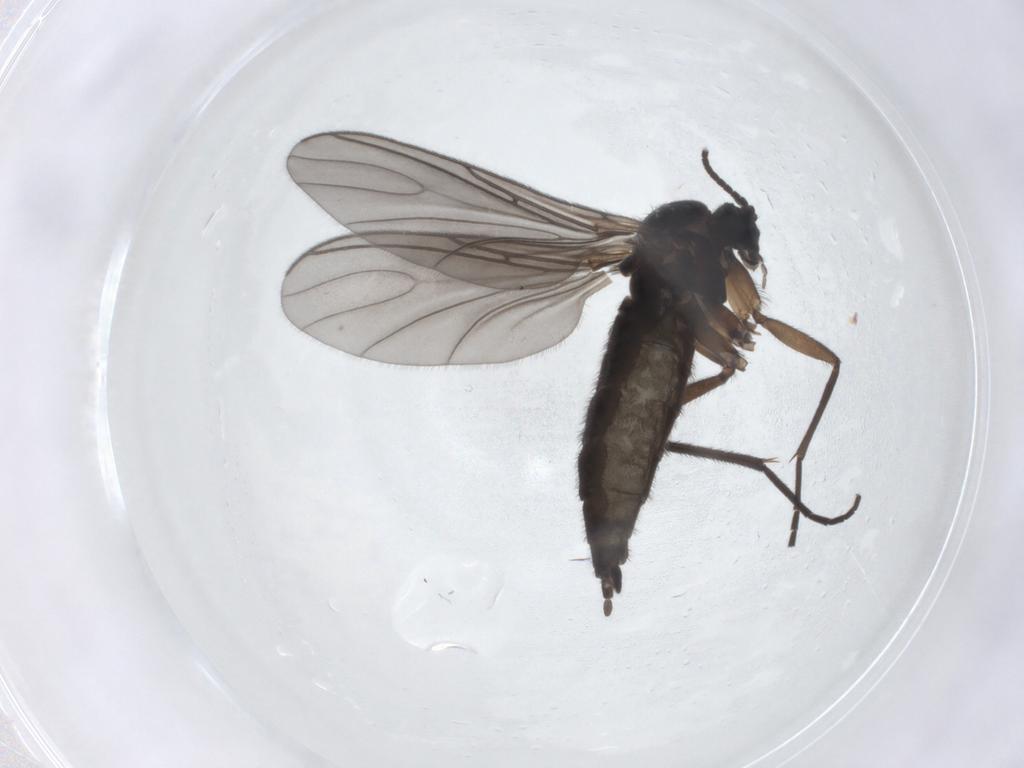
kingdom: Animalia
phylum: Arthropoda
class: Insecta
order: Diptera
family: Sciaridae
